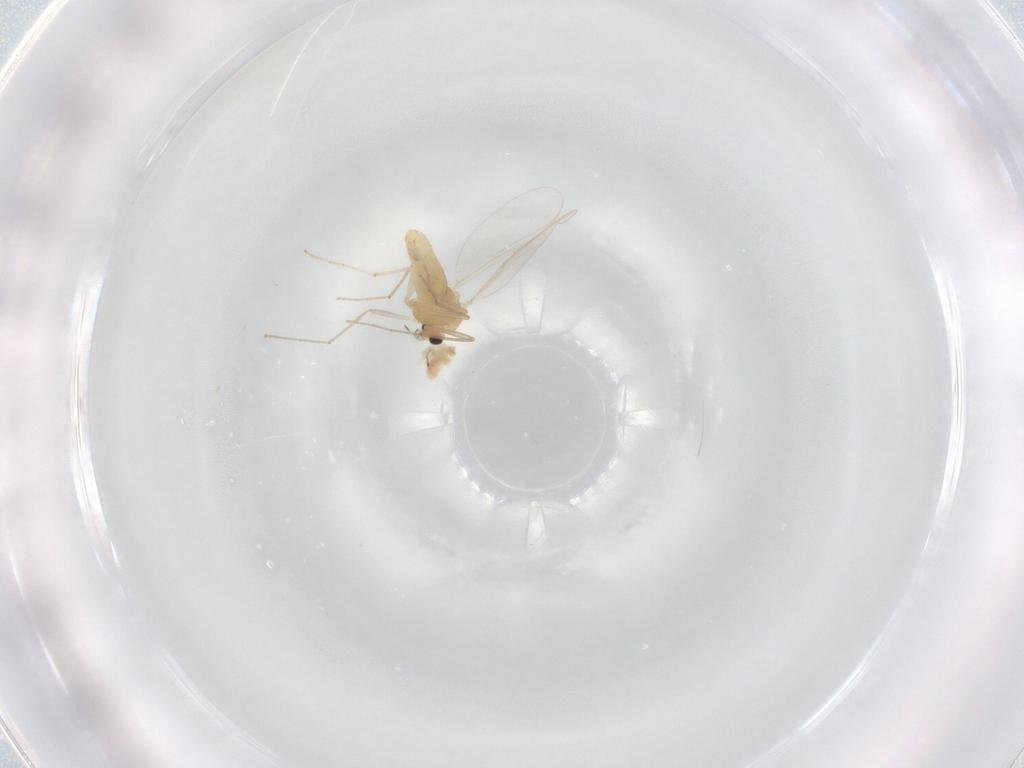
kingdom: Animalia
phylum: Arthropoda
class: Insecta
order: Diptera
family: Chironomidae
